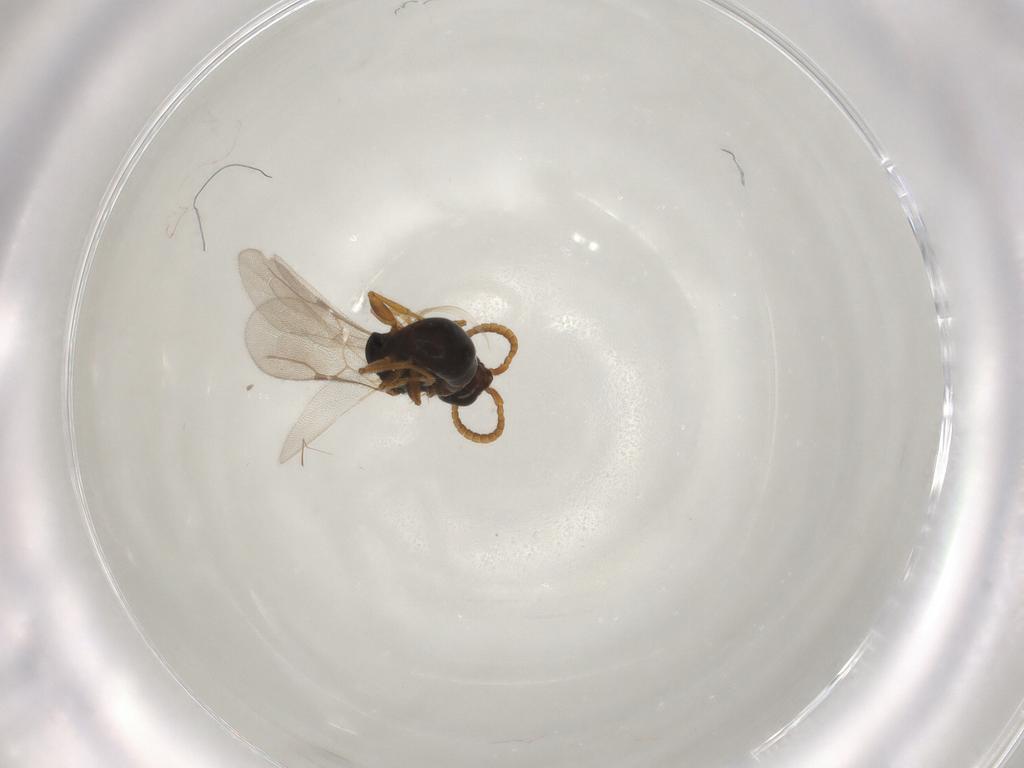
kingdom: Animalia
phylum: Arthropoda
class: Insecta
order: Hymenoptera
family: Bethylidae
